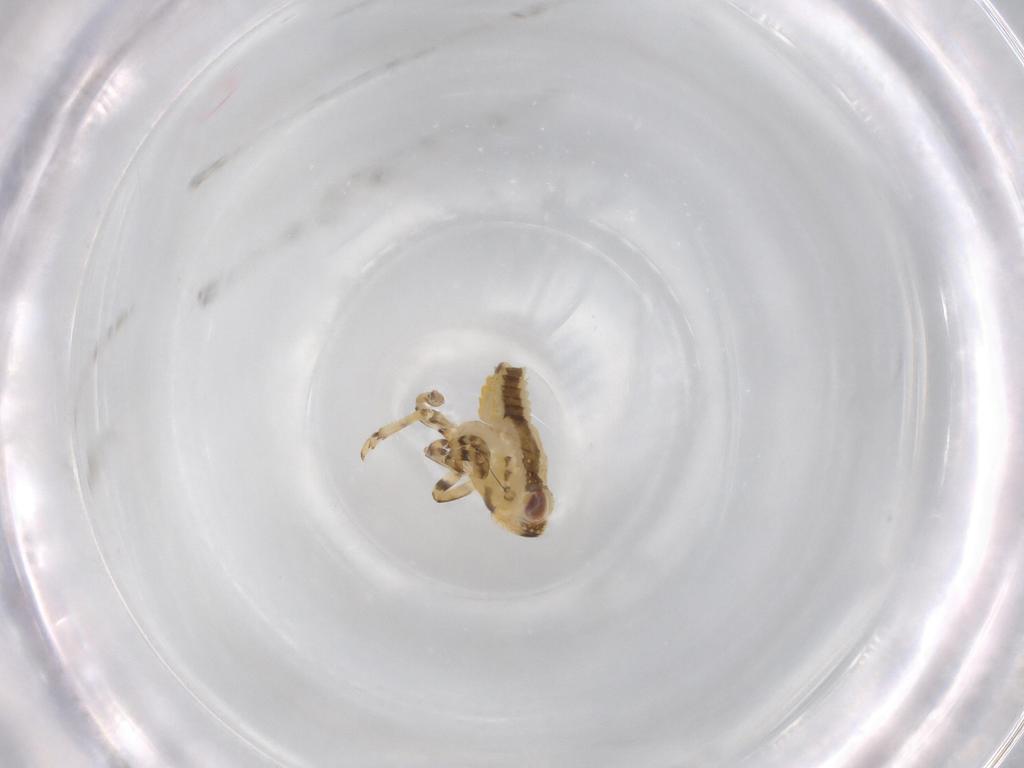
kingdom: Animalia
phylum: Arthropoda
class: Insecta
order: Hemiptera
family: Issidae
